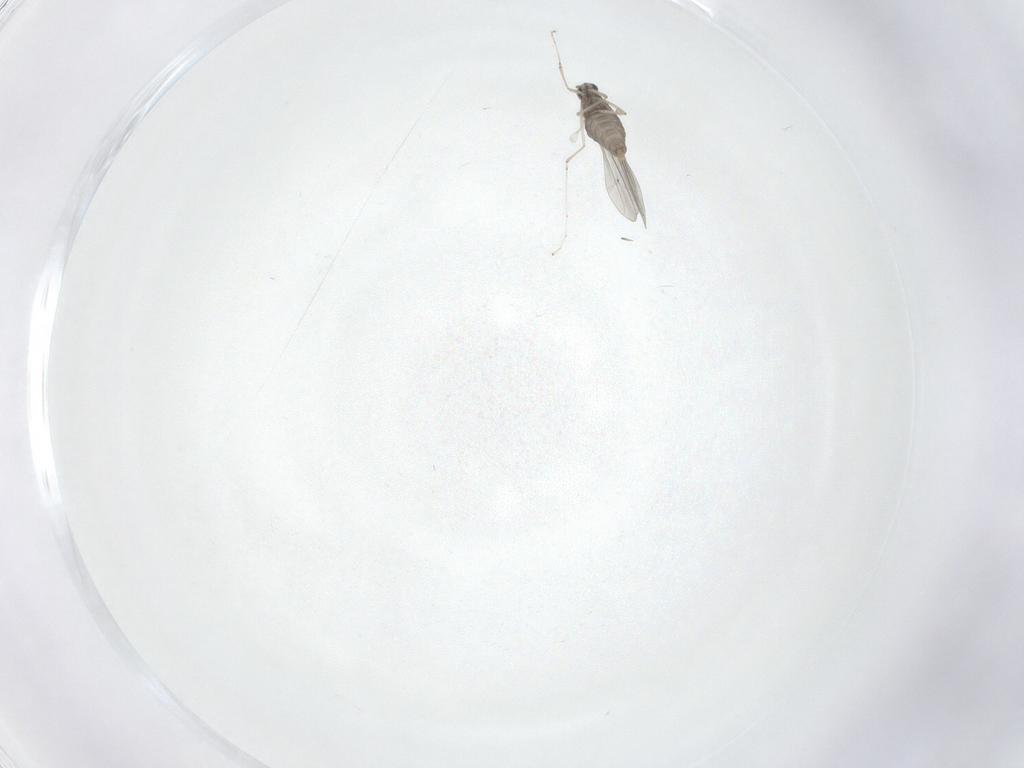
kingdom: Animalia
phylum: Arthropoda
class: Insecta
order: Diptera
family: Cecidomyiidae
